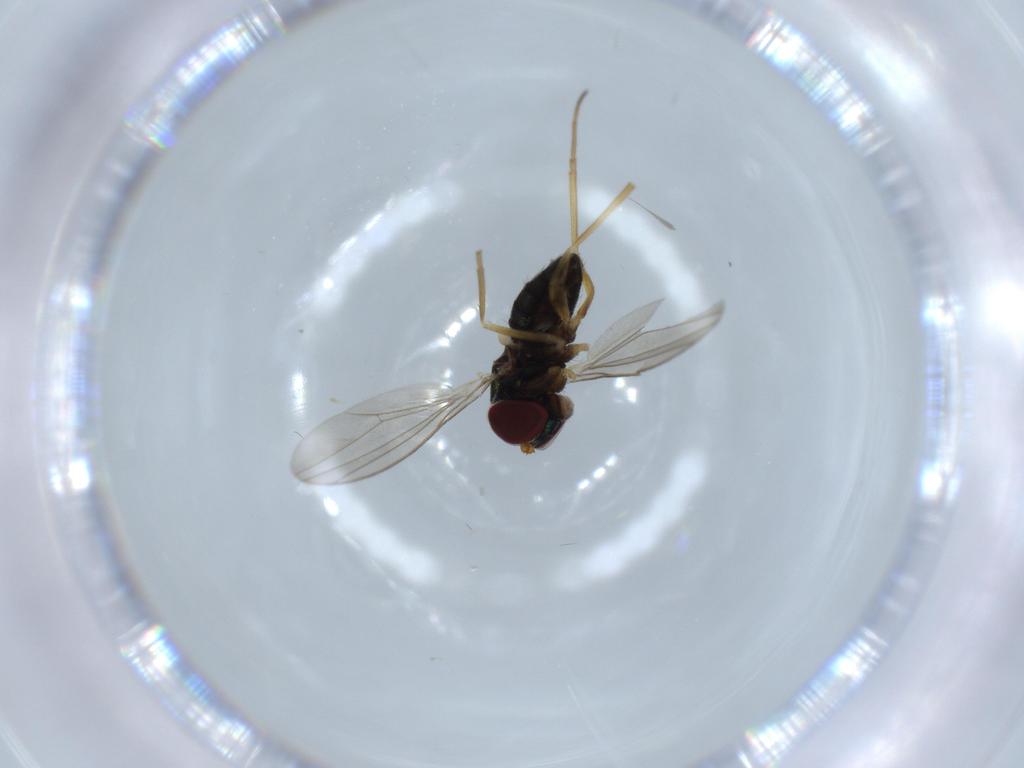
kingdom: Animalia
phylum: Arthropoda
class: Insecta
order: Diptera
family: Dolichopodidae
